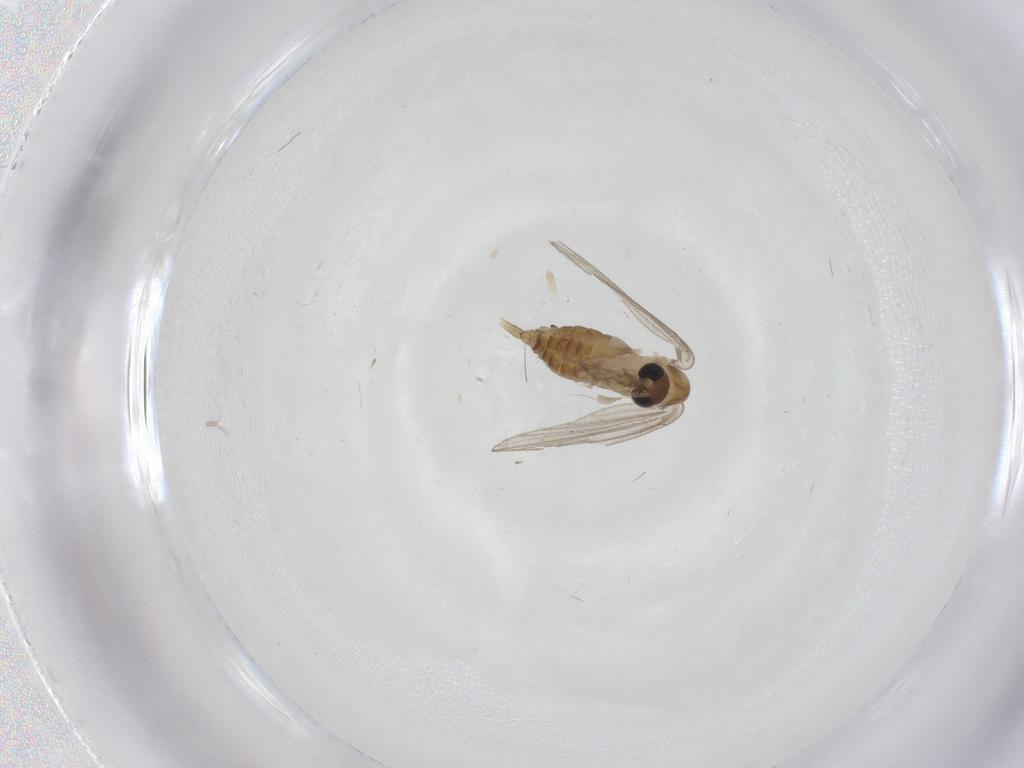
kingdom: Animalia
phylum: Arthropoda
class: Insecta
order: Diptera
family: Psychodidae
